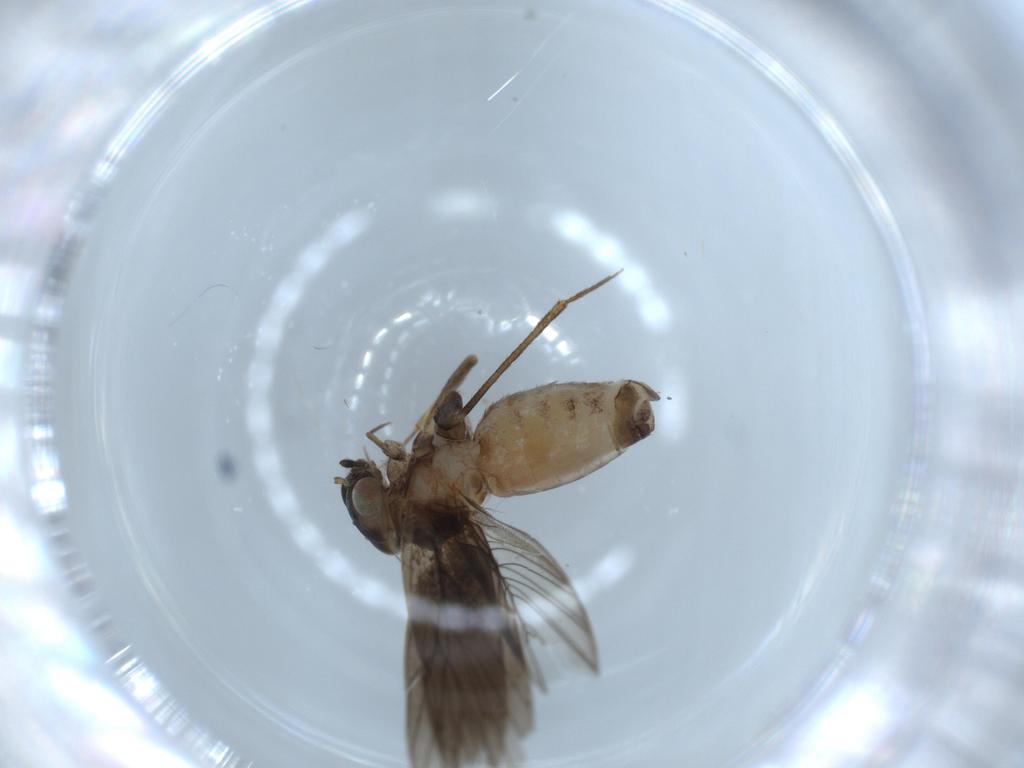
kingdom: Animalia
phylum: Arthropoda
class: Insecta
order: Psocodea
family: Lepidopsocidae
